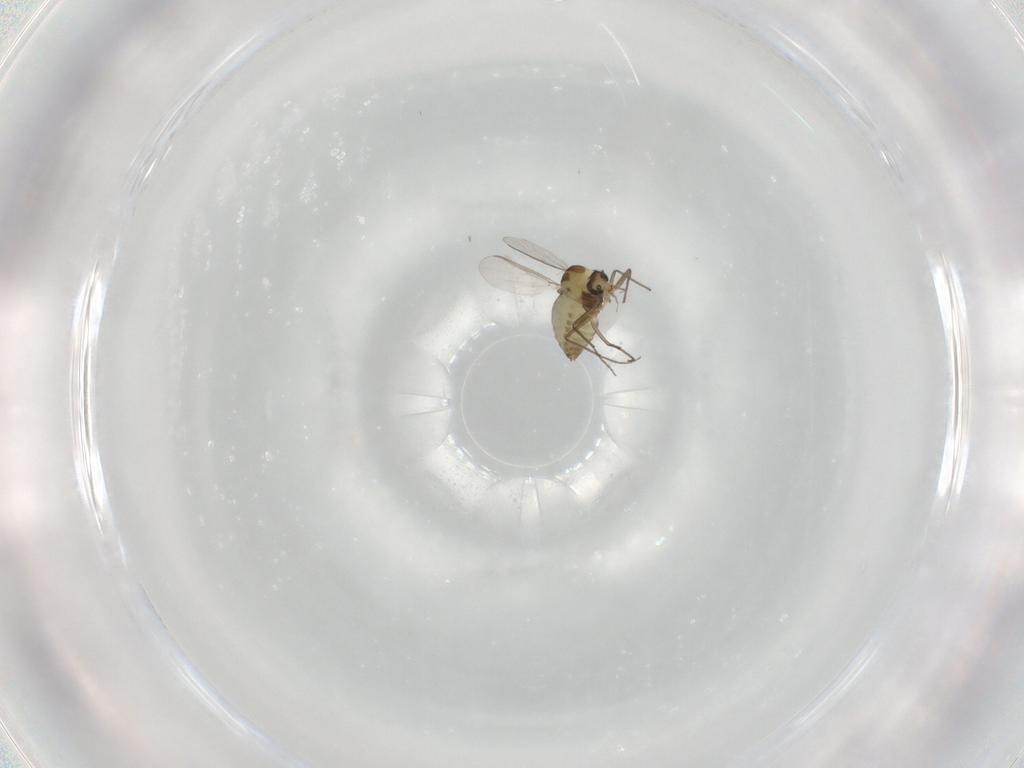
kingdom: Animalia
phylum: Arthropoda
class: Insecta
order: Diptera
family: Chironomidae
